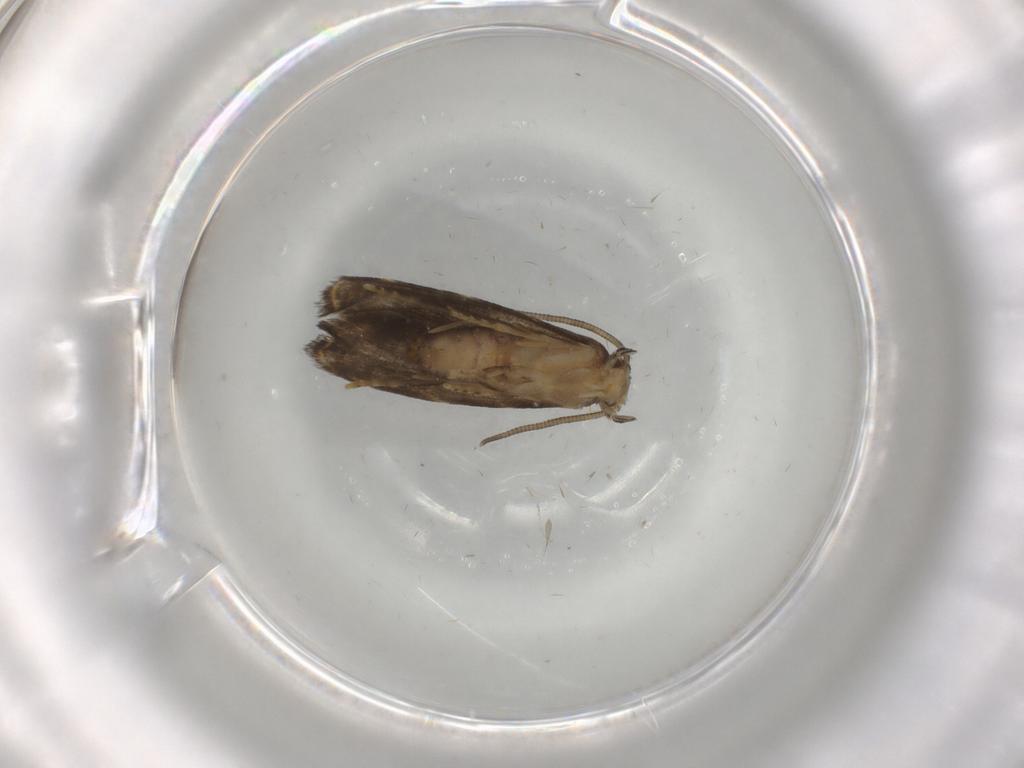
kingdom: Animalia
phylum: Arthropoda
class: Insecta
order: Lepidoptera
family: Dryadaulidae
